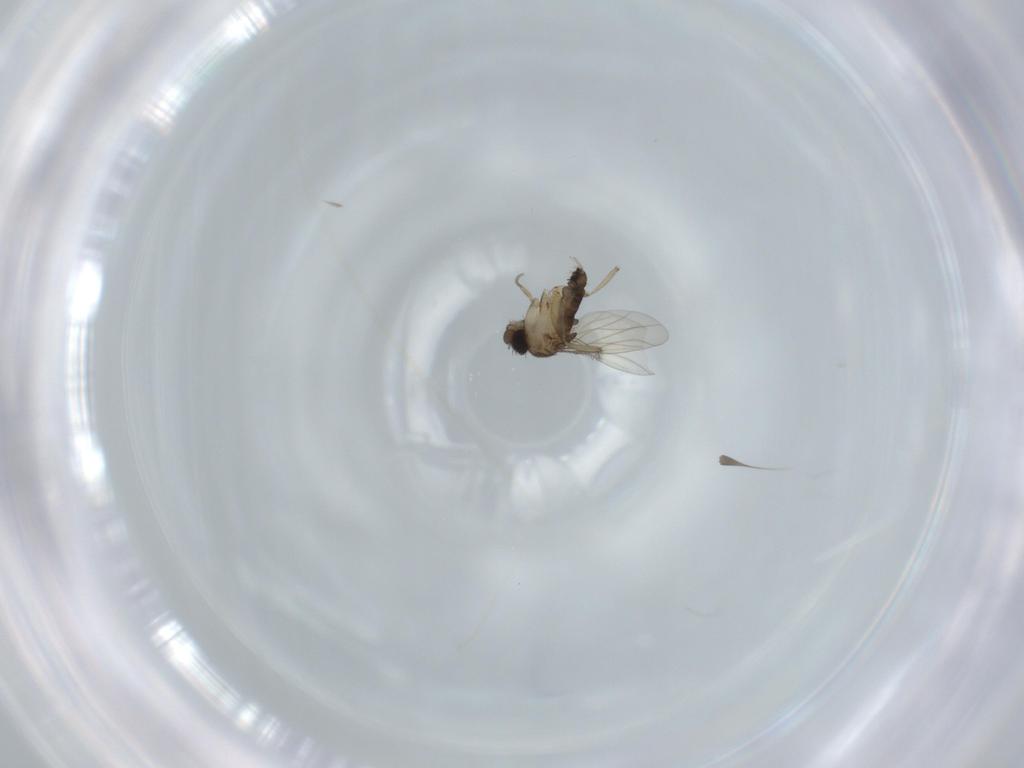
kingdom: Animalia
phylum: Arthropoda
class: Insecta
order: Diptera
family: Phoridae
